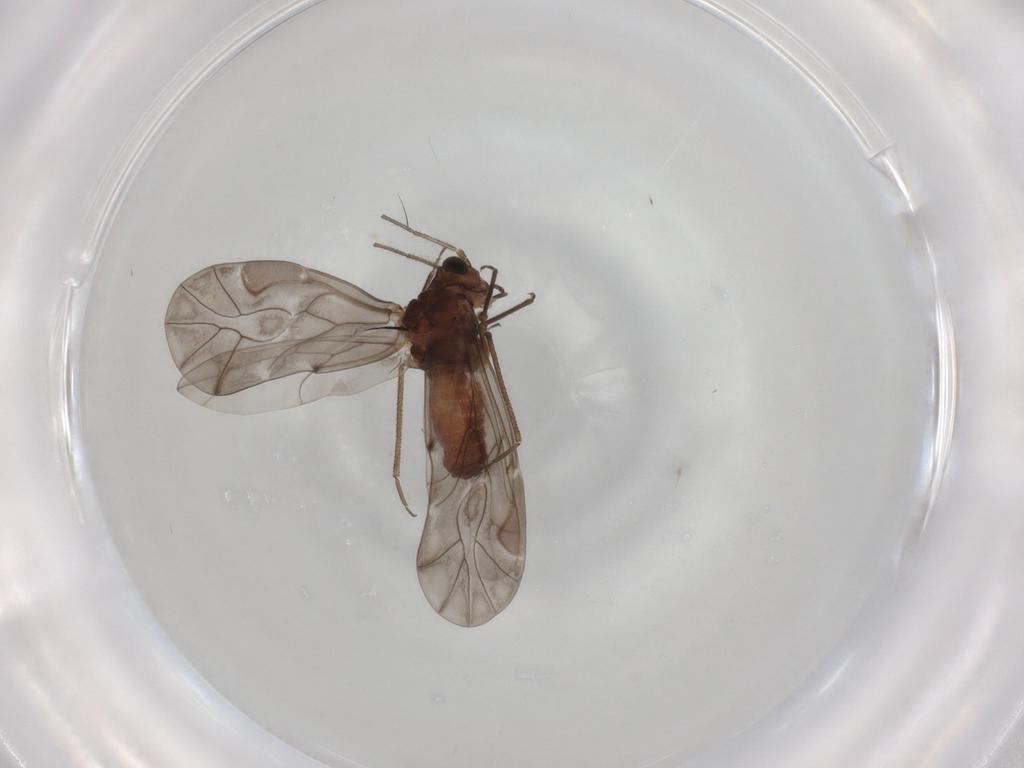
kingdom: Animalia
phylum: Arthropoda
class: Insecta
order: Psocodea
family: Peripsocidae
